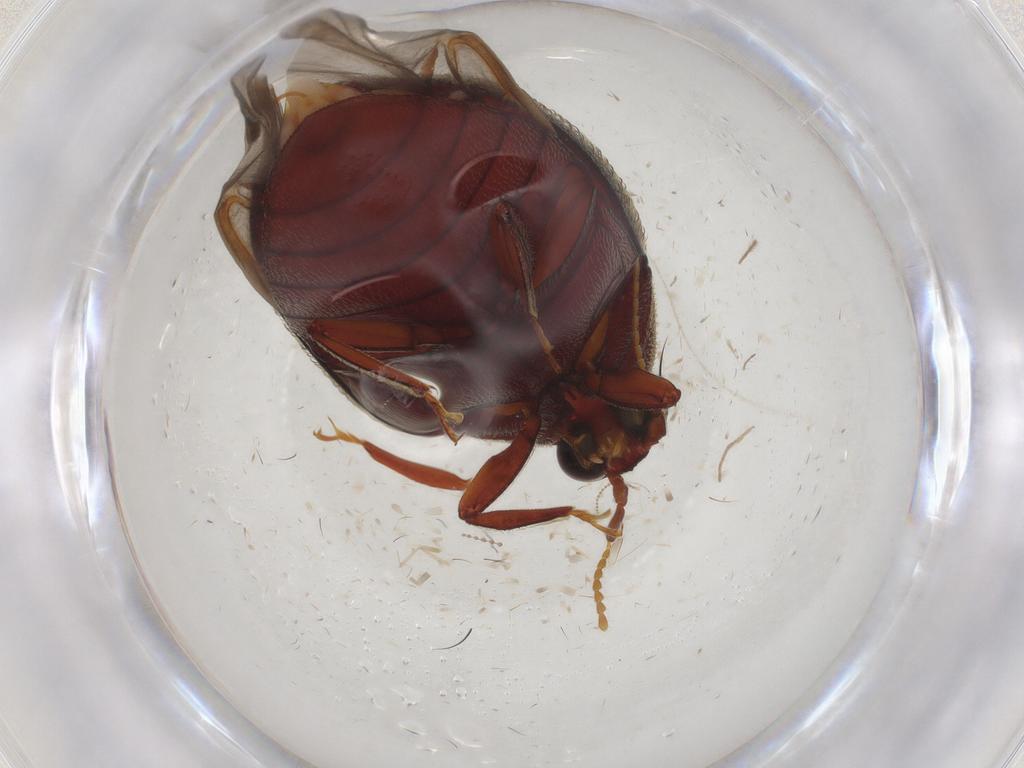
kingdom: Animalia
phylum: Arthropoda
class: Insecta
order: Coleoptera
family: Chelonariidae
